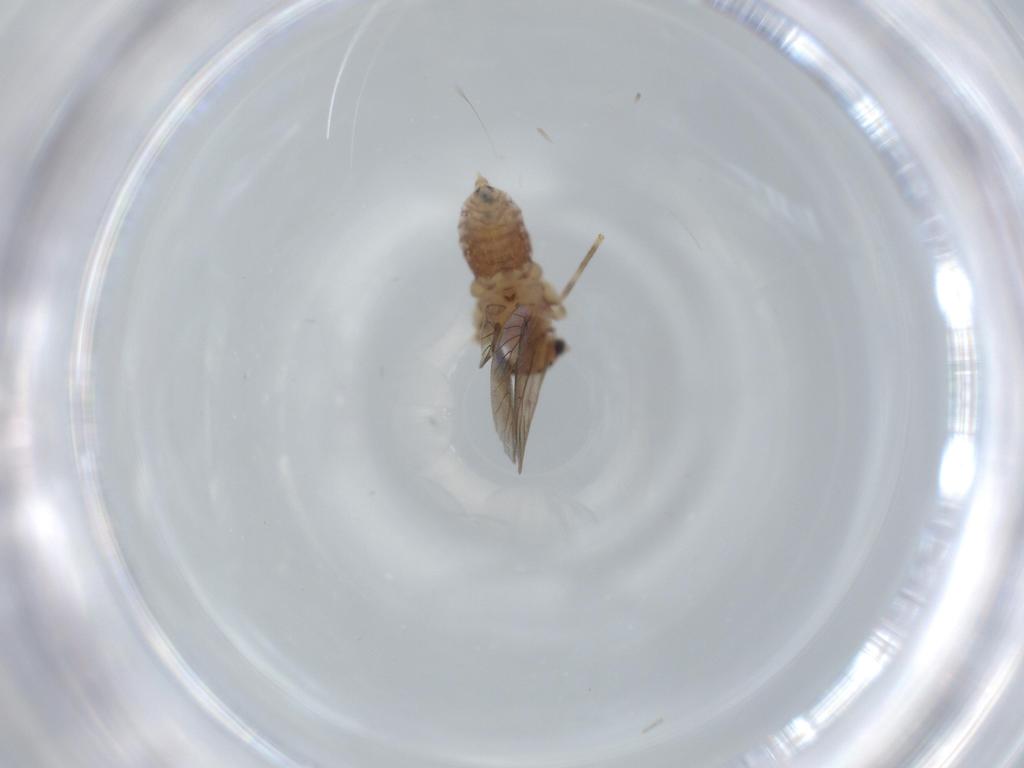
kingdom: Animalia
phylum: Arthropoda
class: Insecta
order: Psocodea
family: Lepidopsocidae
